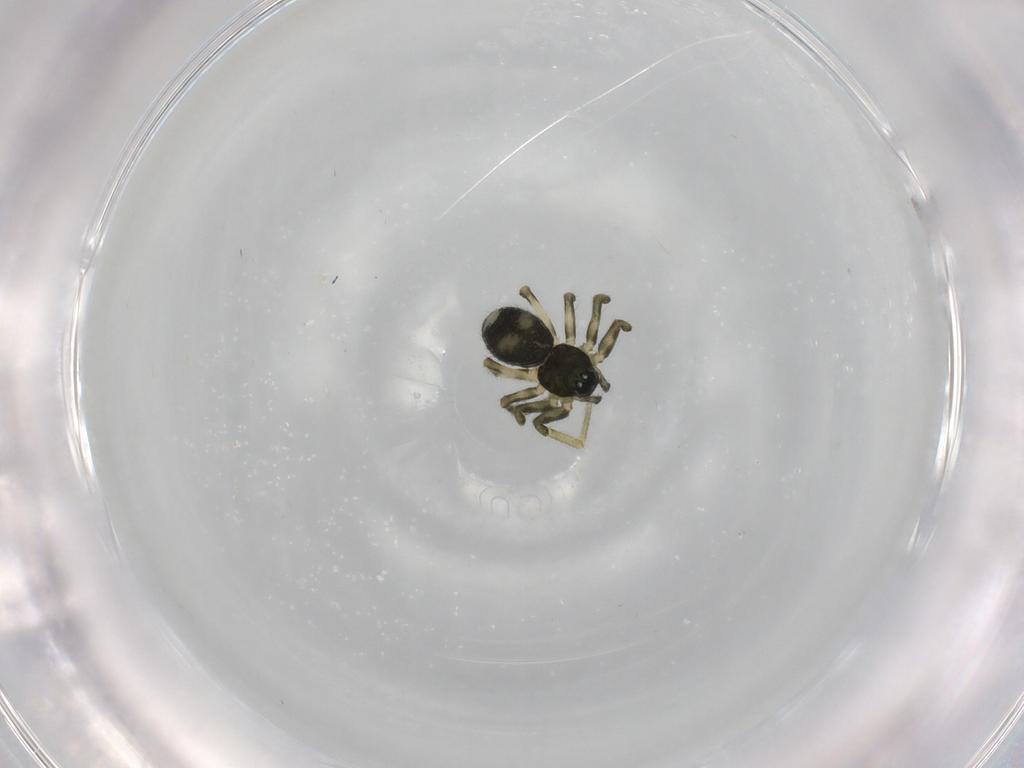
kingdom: Animalia
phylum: Arthropoda
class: Arachnida
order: Araneae
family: Linyphiidae
